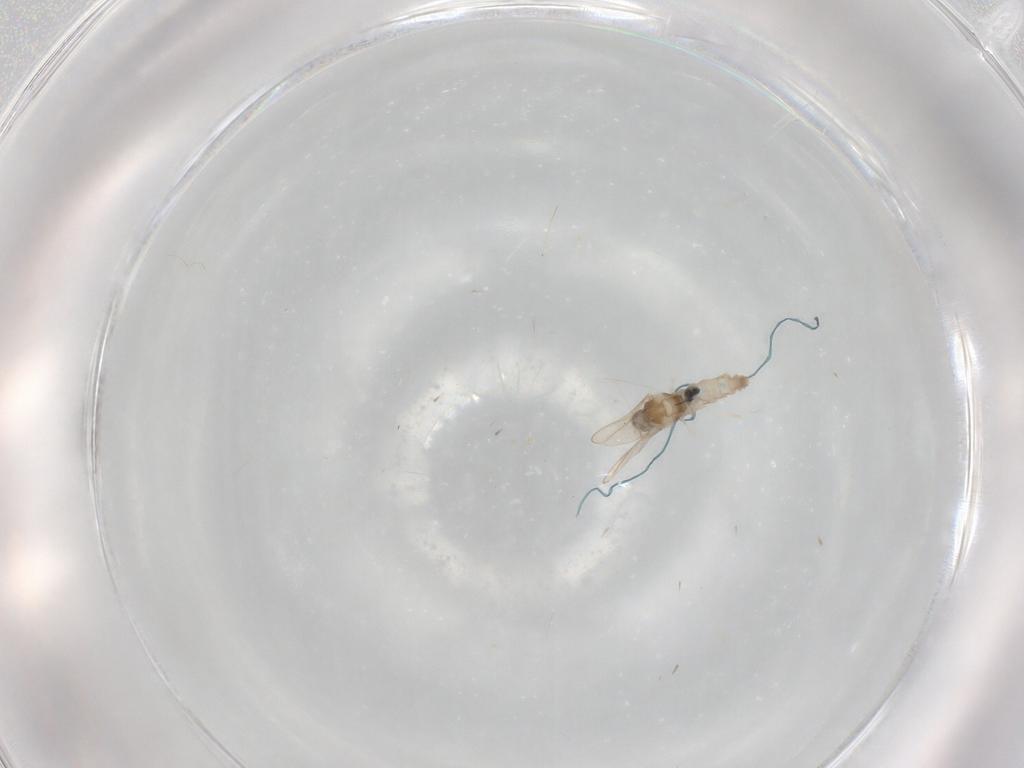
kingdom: Animalia
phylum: Arthropoda
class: Insecta
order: Diptera
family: Cecidomyiidae
